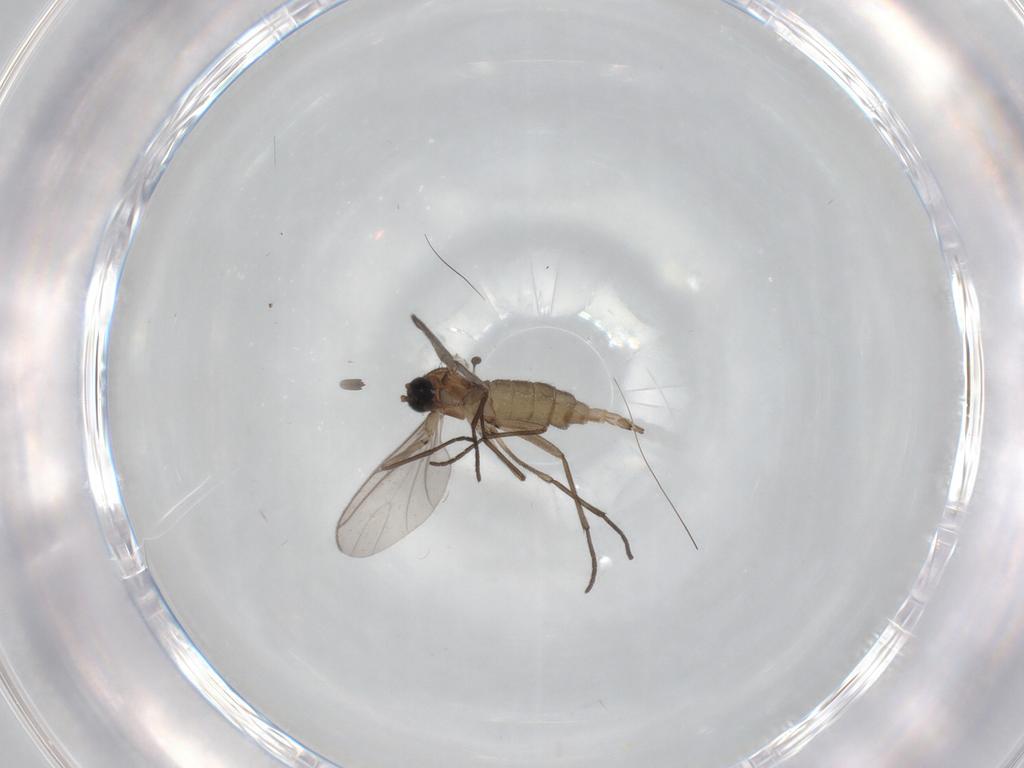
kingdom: Animalia
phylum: Arthropoda
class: Insecta
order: Diptera
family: Sciaridae
